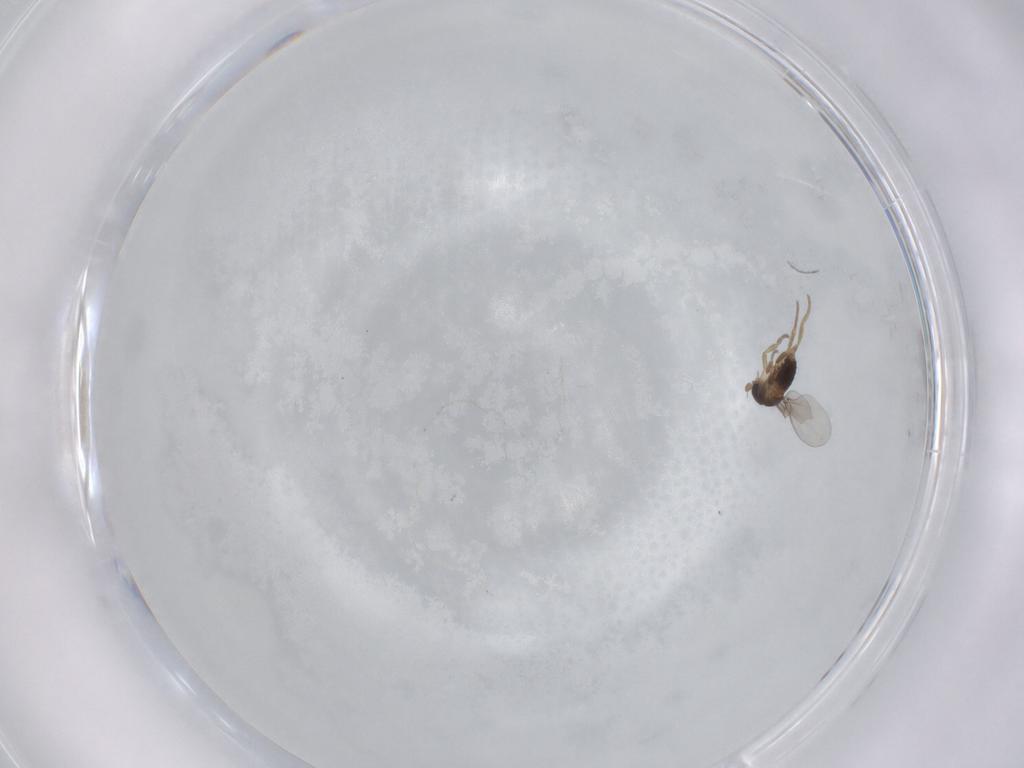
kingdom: Animalia
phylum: Arthropoda
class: Insecta
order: Diptera
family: Phoridae
